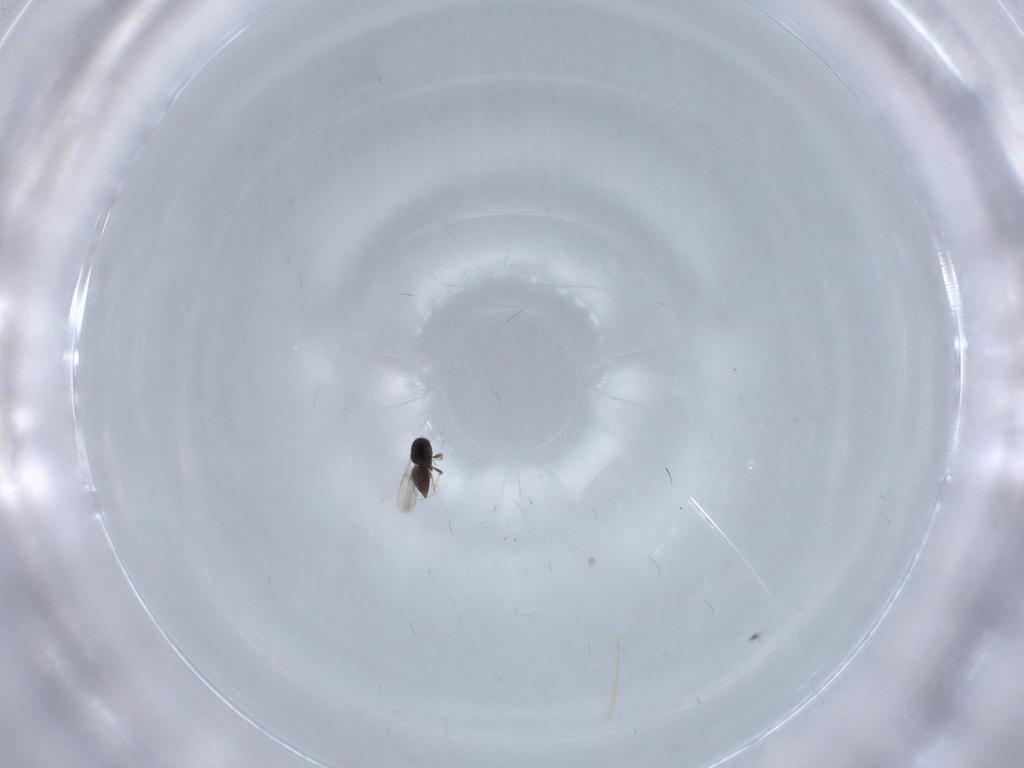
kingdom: Animalia
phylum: Arthropoda
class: Insecta
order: Hymenoptera
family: Ceraphronidae
